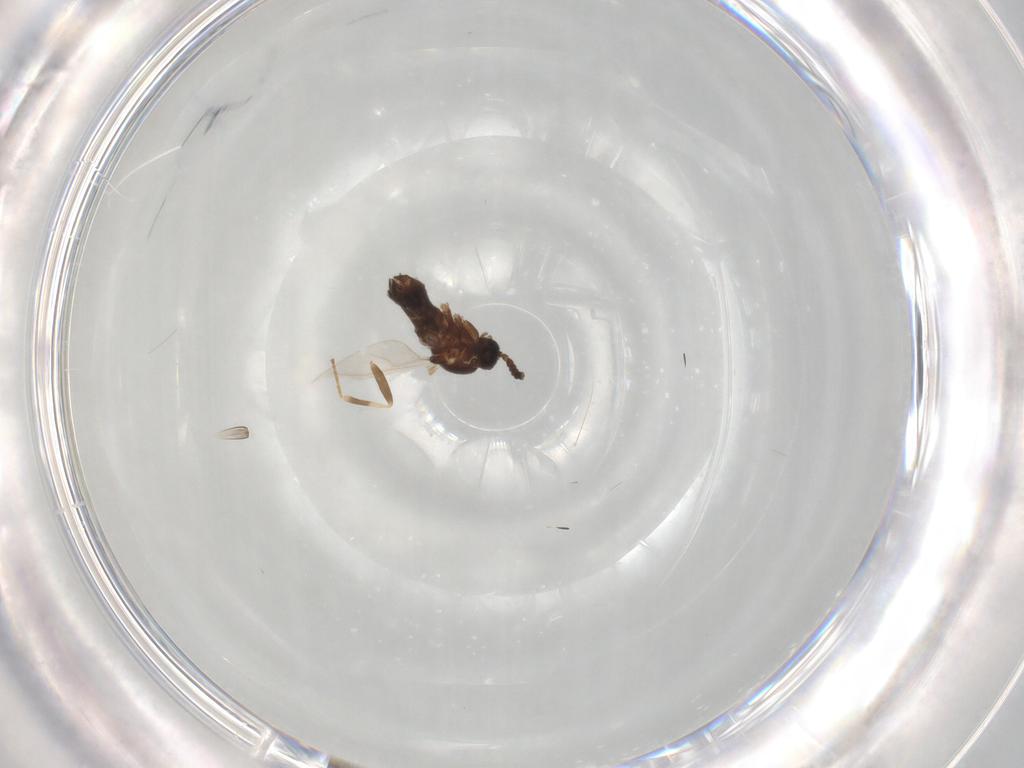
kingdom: Animalia
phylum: Arthropoda
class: Insecta
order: Diptera
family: Scatopsidae
